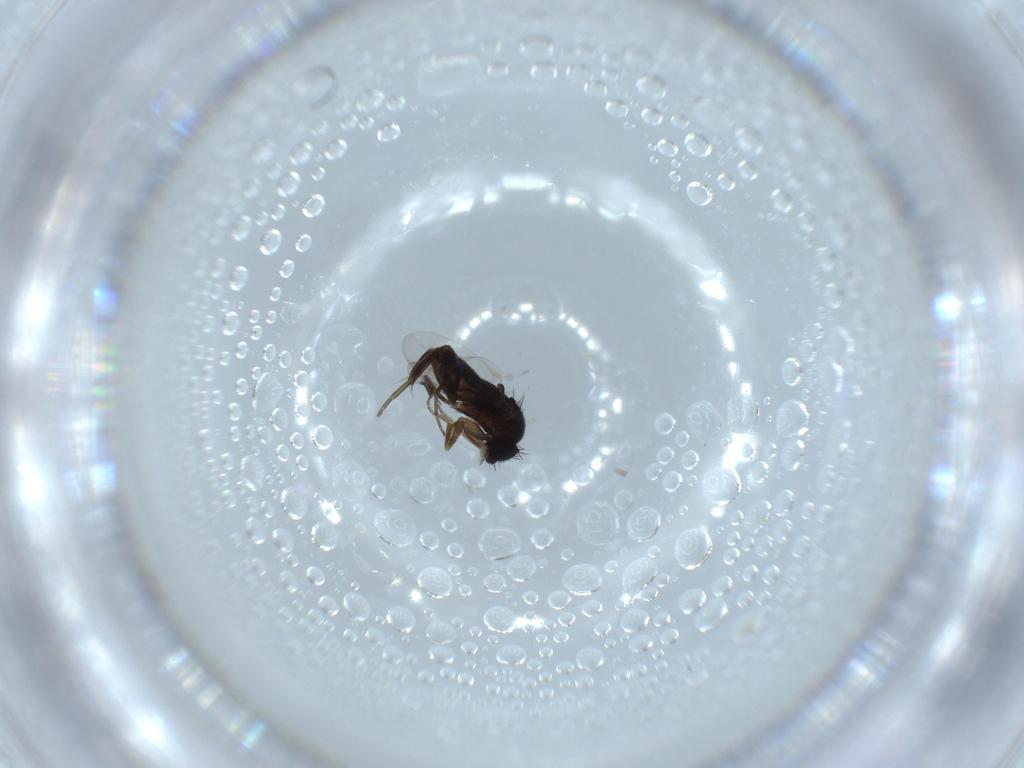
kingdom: Animalia
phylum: Arthropoda
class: Insecta
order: Diptera
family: Phoridae
